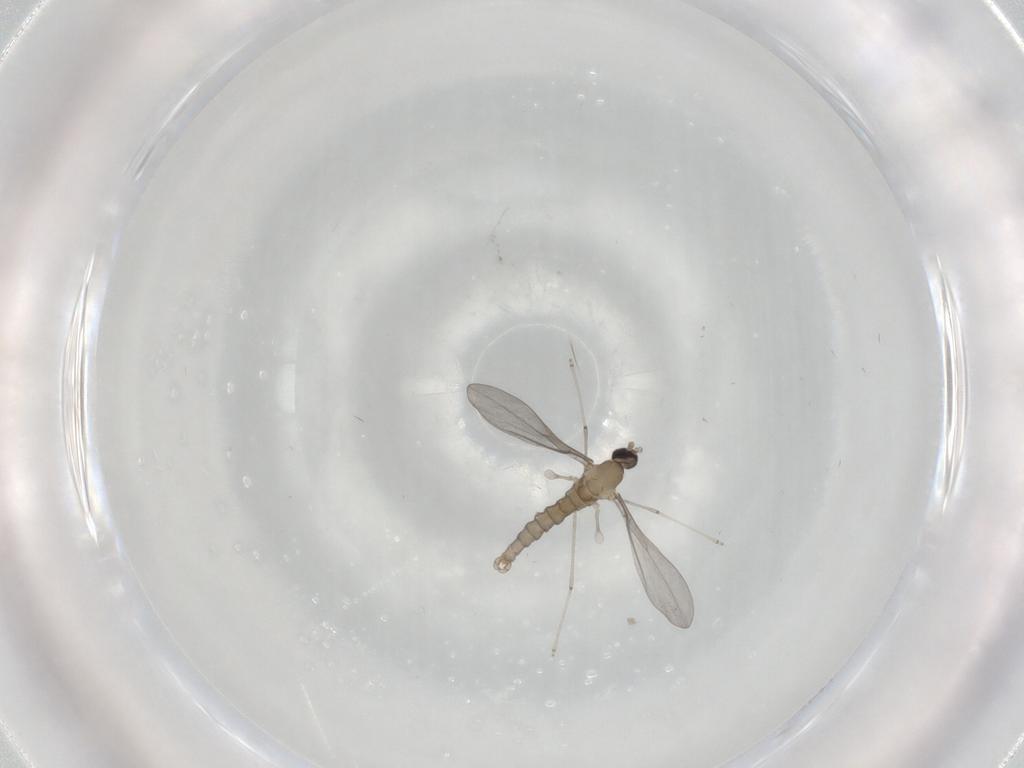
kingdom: Animalia
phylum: Arthropoda
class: Insecta
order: Diptera
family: Cecidomyiidae
